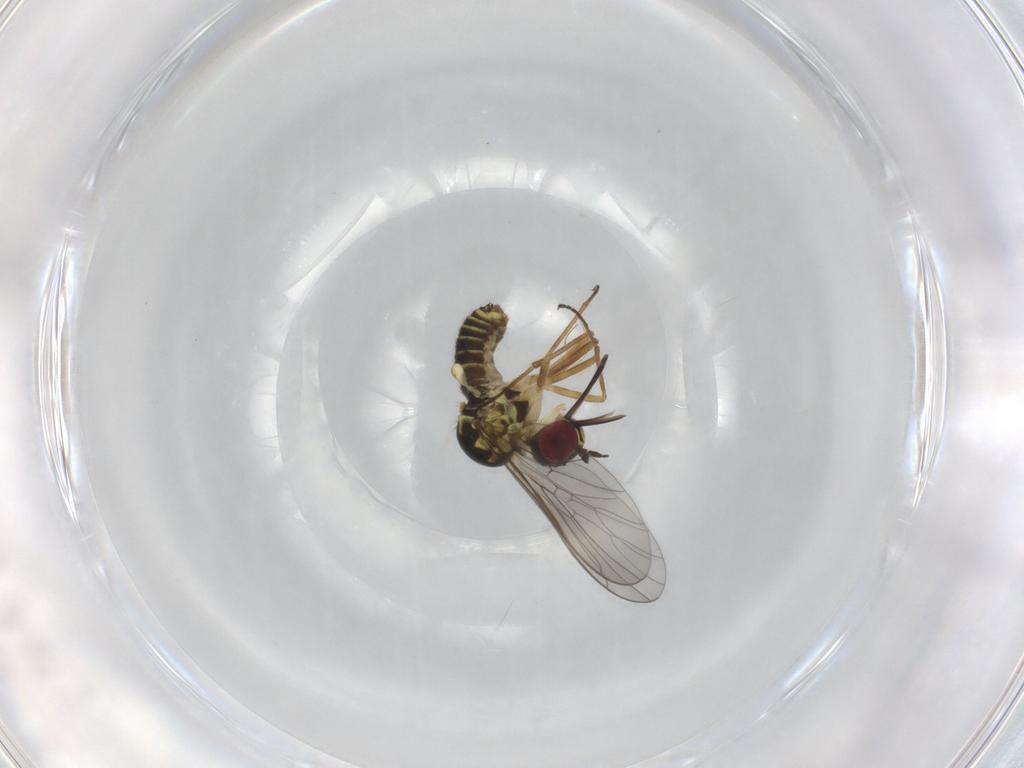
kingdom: Animalia
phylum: Arthropoda
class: Insecta
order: Diptera
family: Mythicomyiidae
